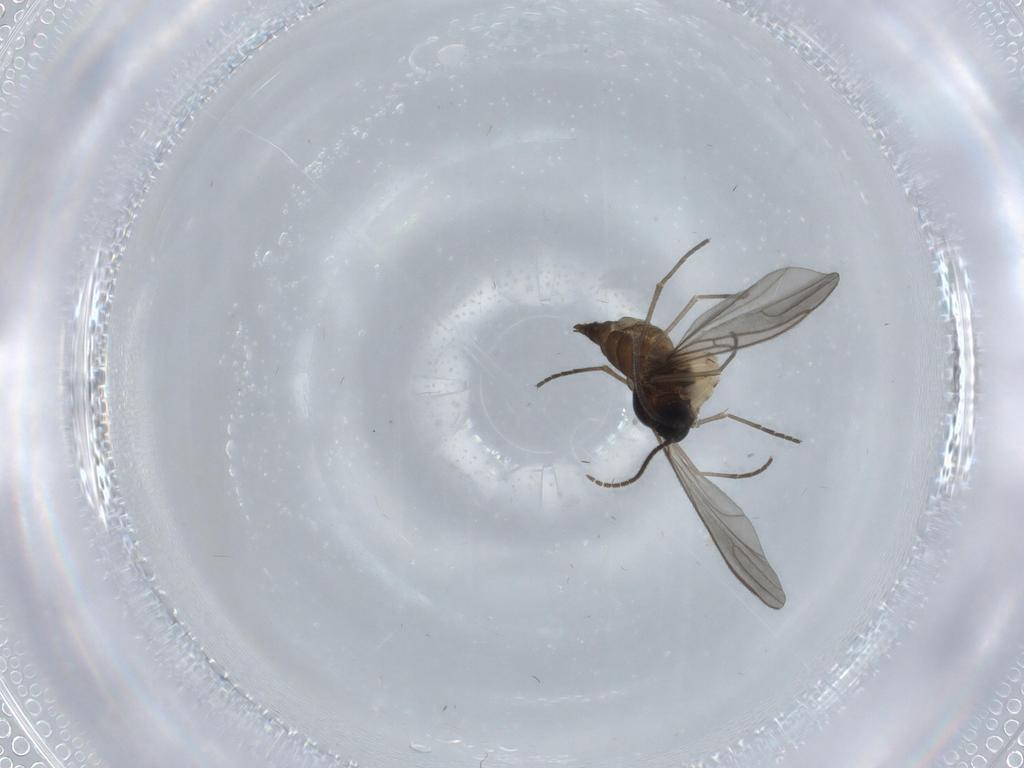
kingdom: Animalia
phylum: Arthropoda
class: Insecta
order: Diptera
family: Sciaridae
